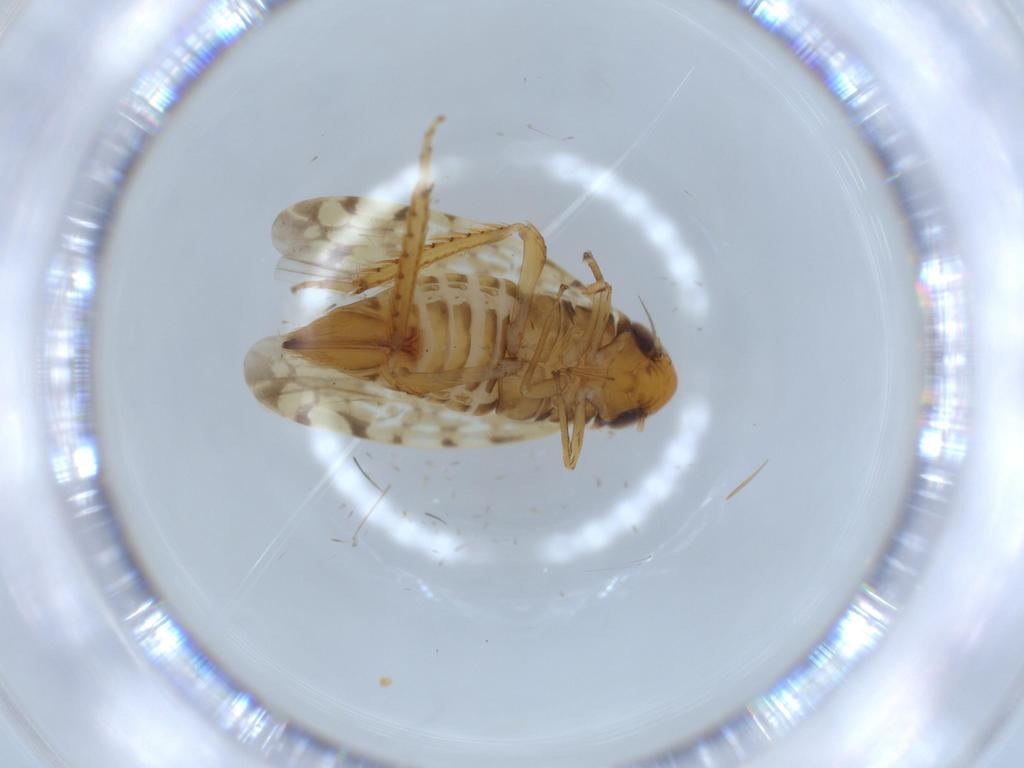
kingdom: Animalia
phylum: Arthropoda
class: Insecta
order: Hemiptera
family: Cicadellidae
